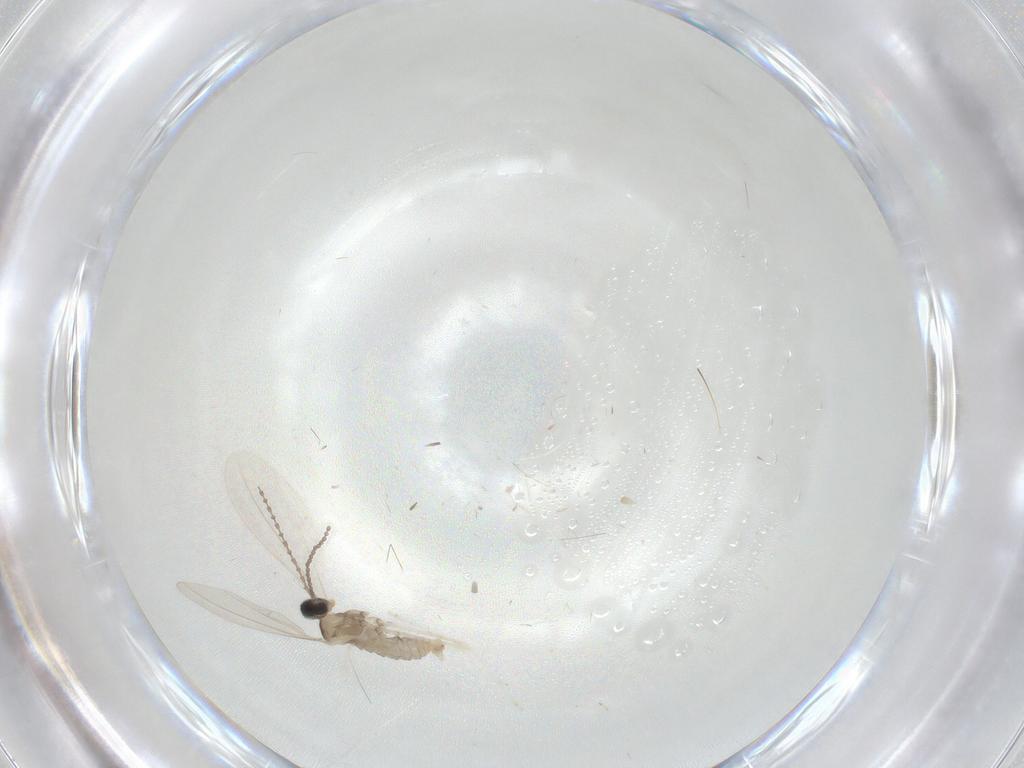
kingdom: Animalia
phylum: Arthropoda
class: Insecta
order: Diptera
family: Cecidomyiidae
